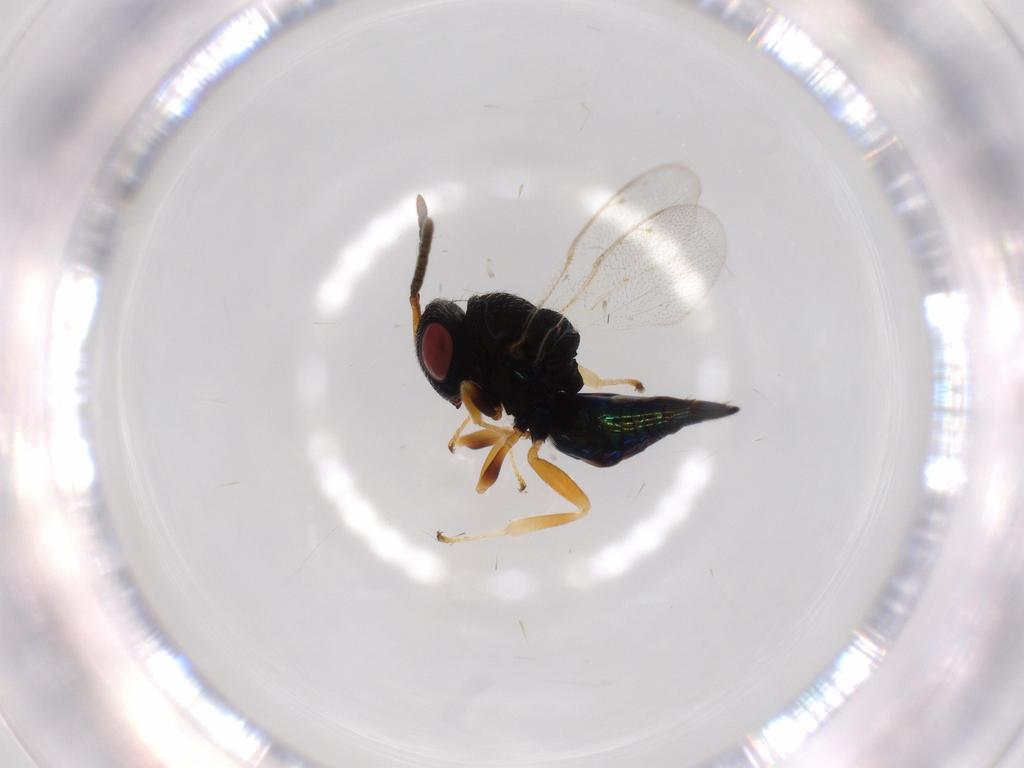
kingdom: Animalia
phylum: Arthropoda
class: Insecta
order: Hymenoptera
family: Pteromalidae
